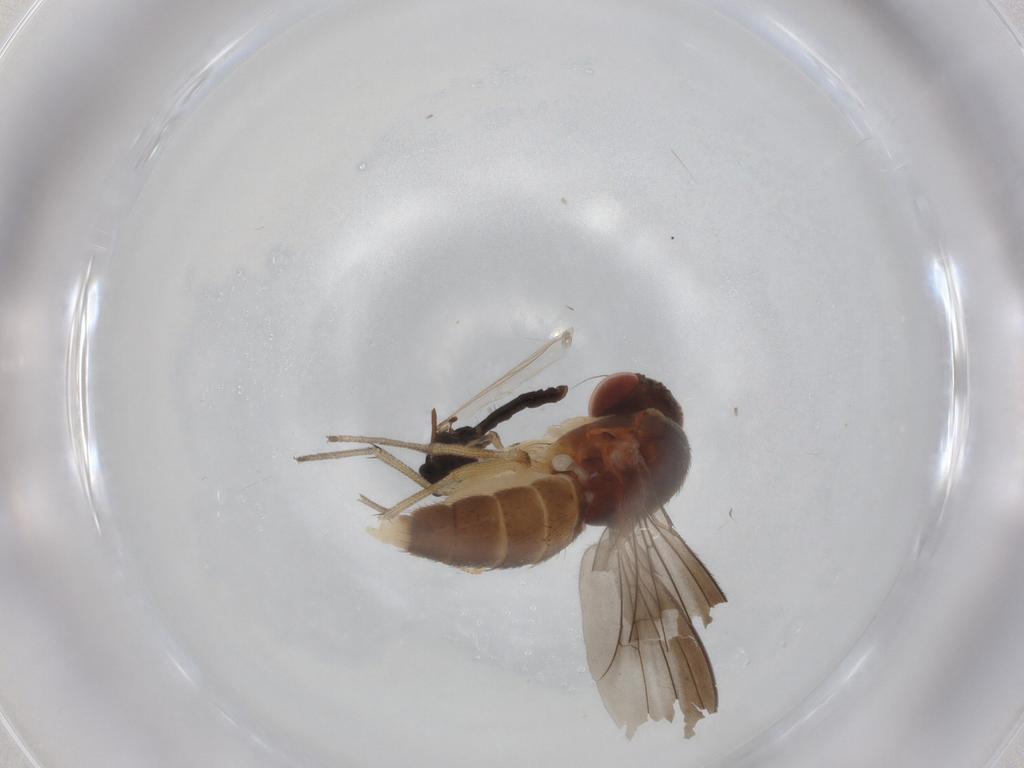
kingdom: Animalia
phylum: Arthropoda
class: Insecta
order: Diptera
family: Diastatidae
